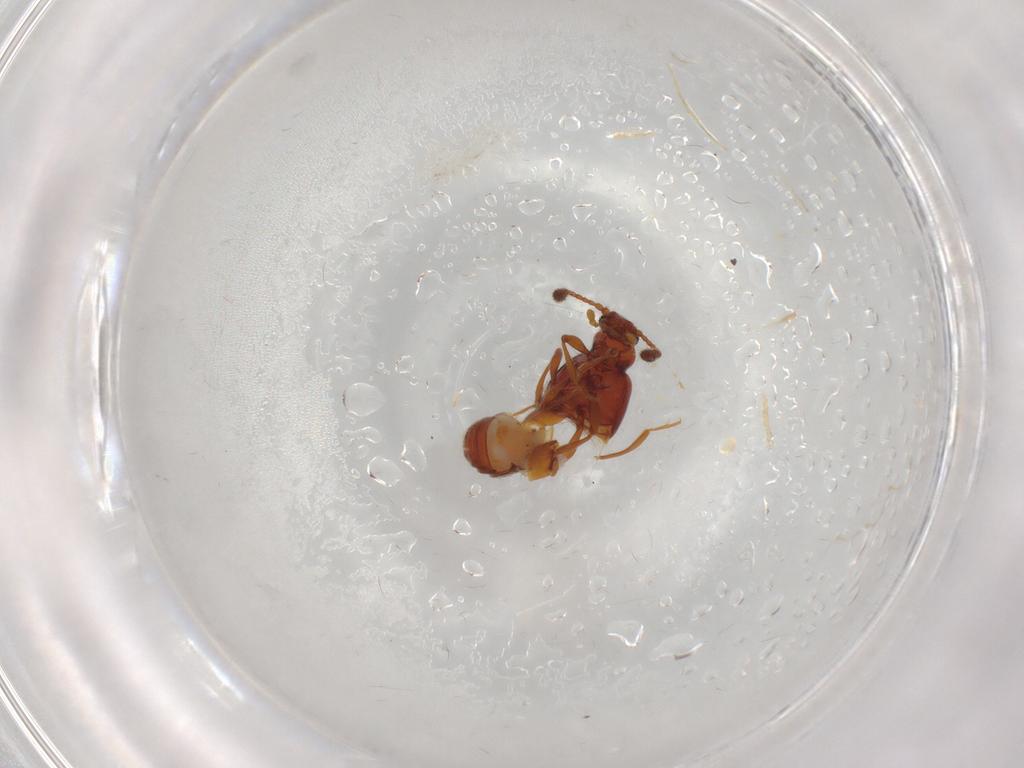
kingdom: Animalia
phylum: Arthropoda
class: Insecta
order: Coleoptera
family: Staphylinidae
